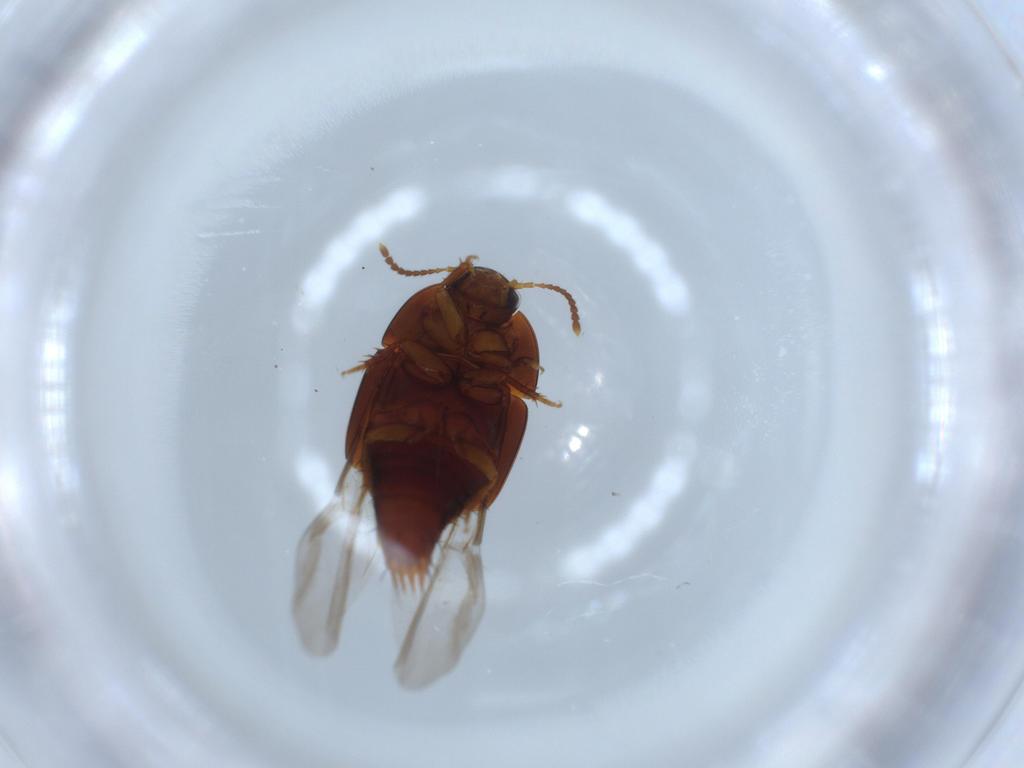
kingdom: Animalia
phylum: Arthropoda
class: Insecta
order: Coleoptera
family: Staphylinidae
